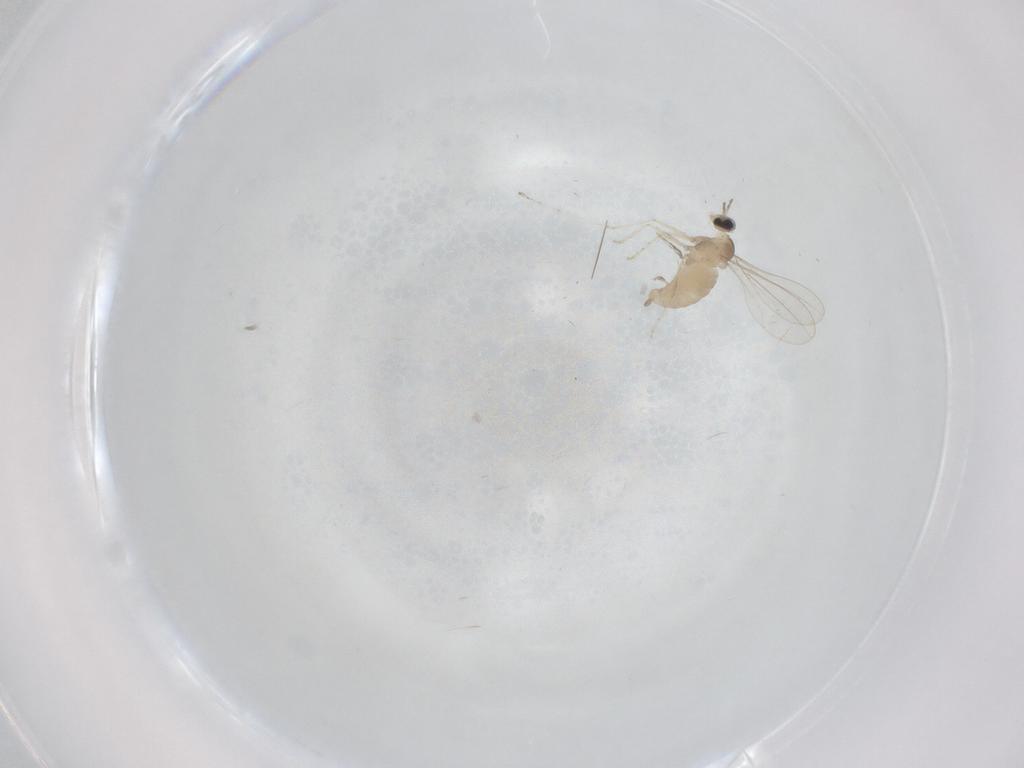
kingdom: Animalia
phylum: Arthropoda
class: Insecta
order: Diptera
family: Cecidomyiidae
